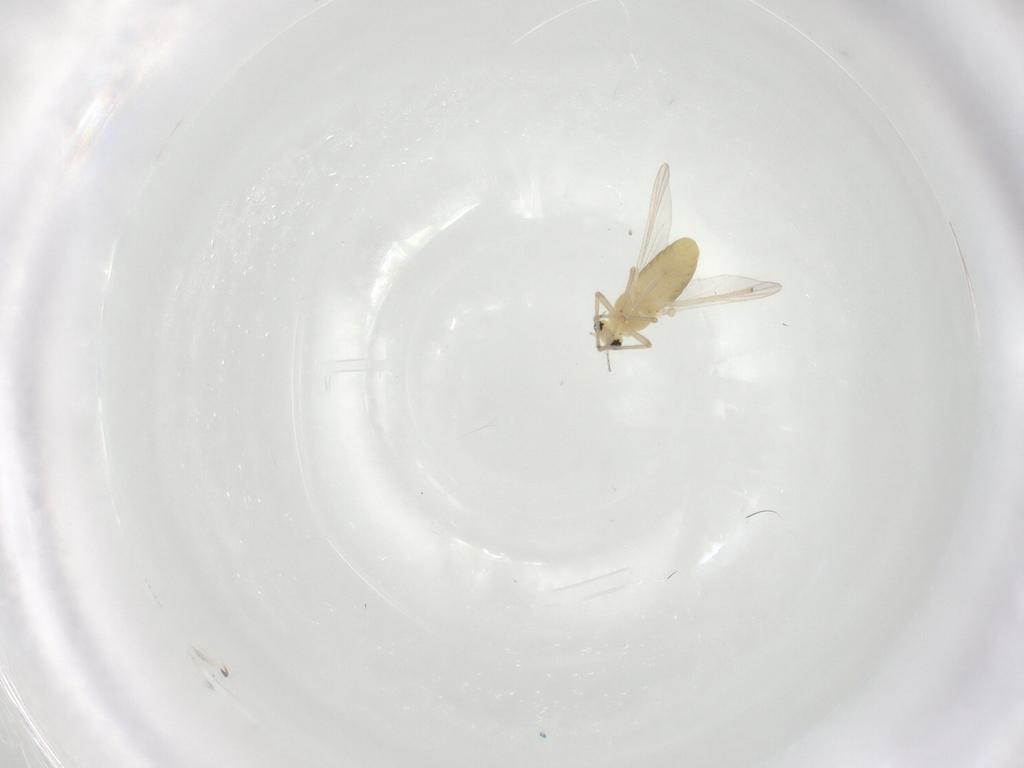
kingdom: Animalia
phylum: Arthropoda
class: Insecta
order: Diptera
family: Chironomidae
